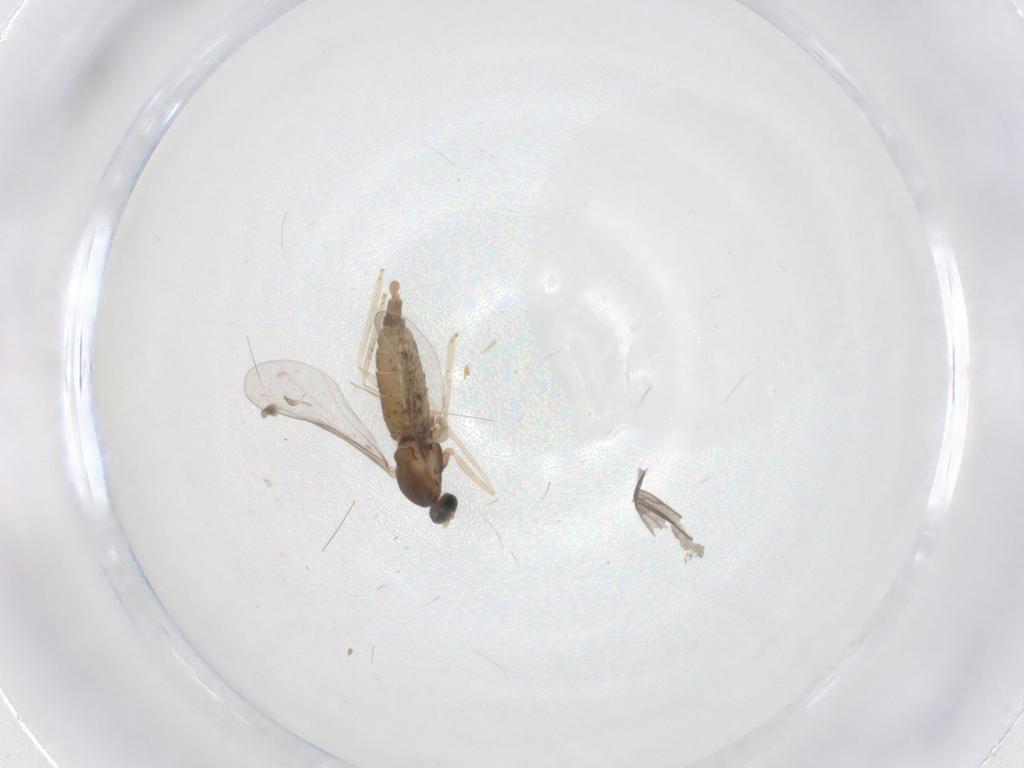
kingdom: Animalia
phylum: Arthropoda
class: Insecta
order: Diptera
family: Cecidomyiidae
